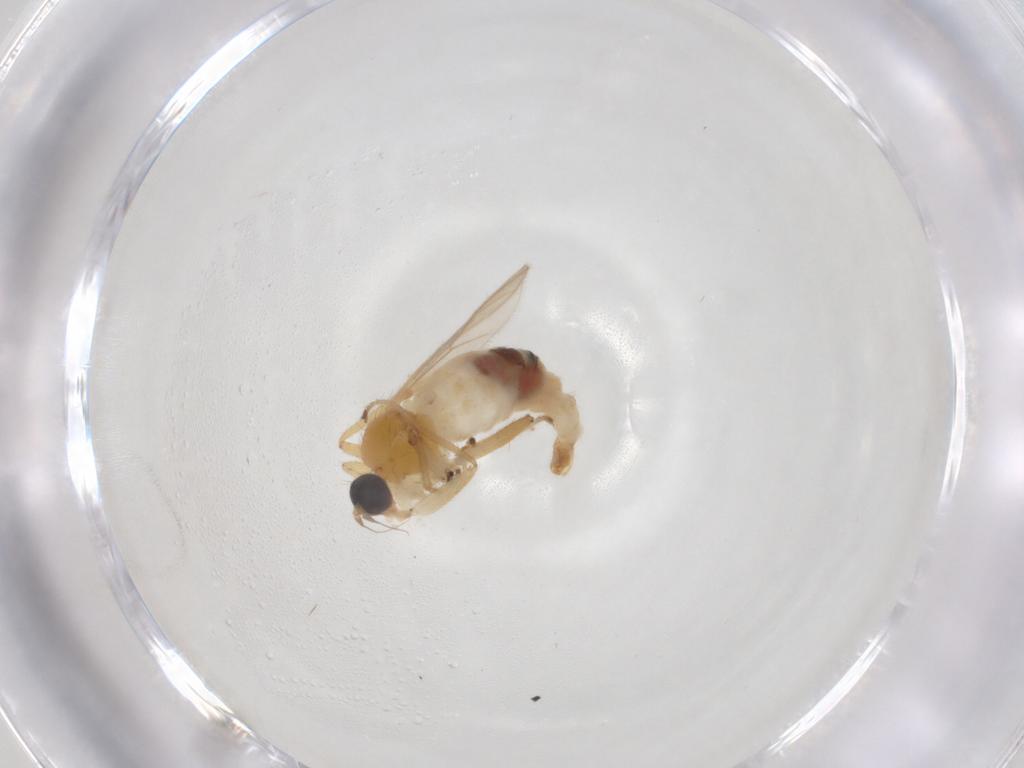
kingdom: Animalia
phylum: Arthropoda
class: Insecta
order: Diptera
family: Hybotidae
